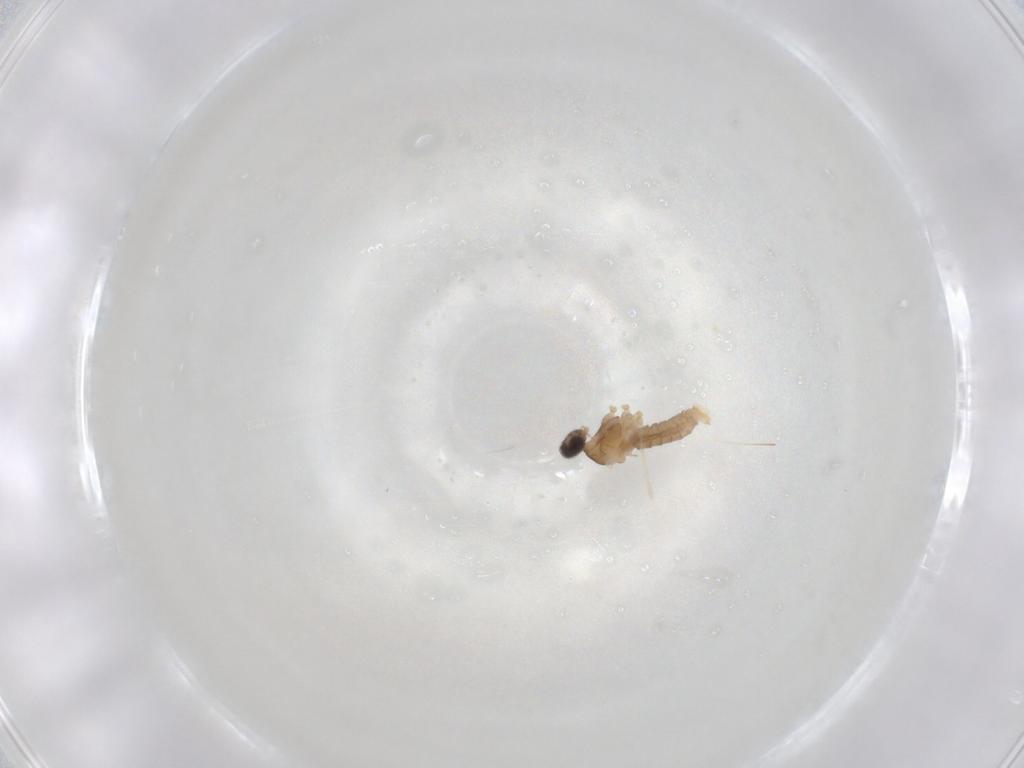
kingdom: Animalia
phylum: Arthropoda
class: Insecta
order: Diptera
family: Cecidomyiidae
